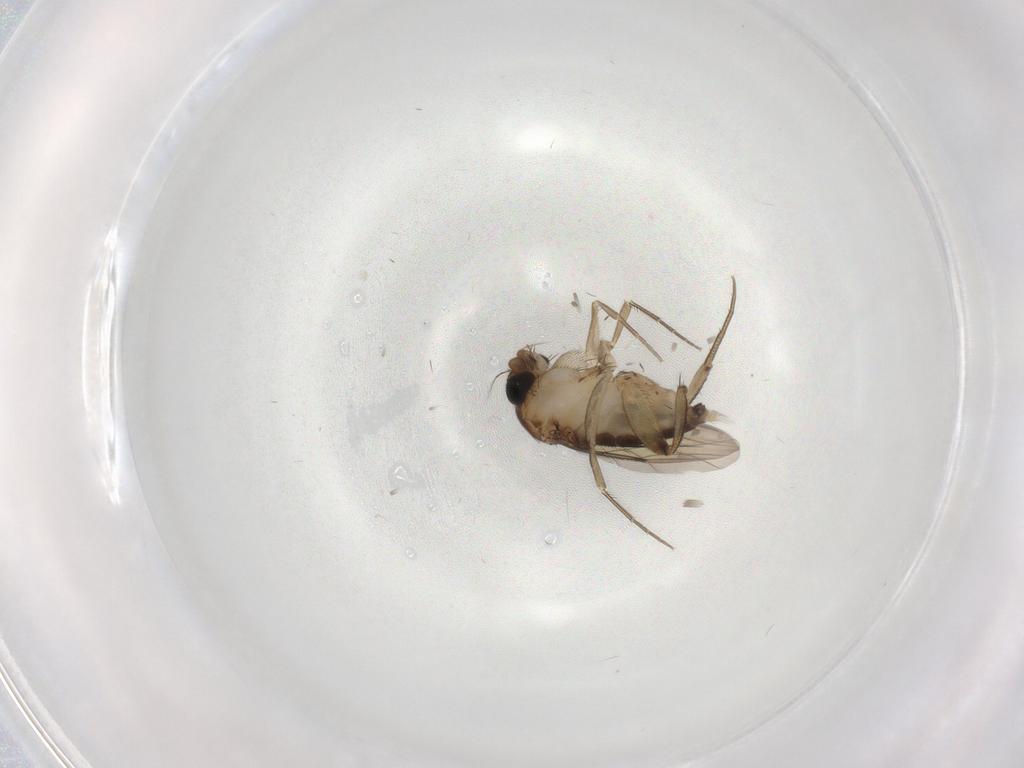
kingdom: Animalia
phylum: Arthropoda
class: Insecta
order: Diptera
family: Phoridae
